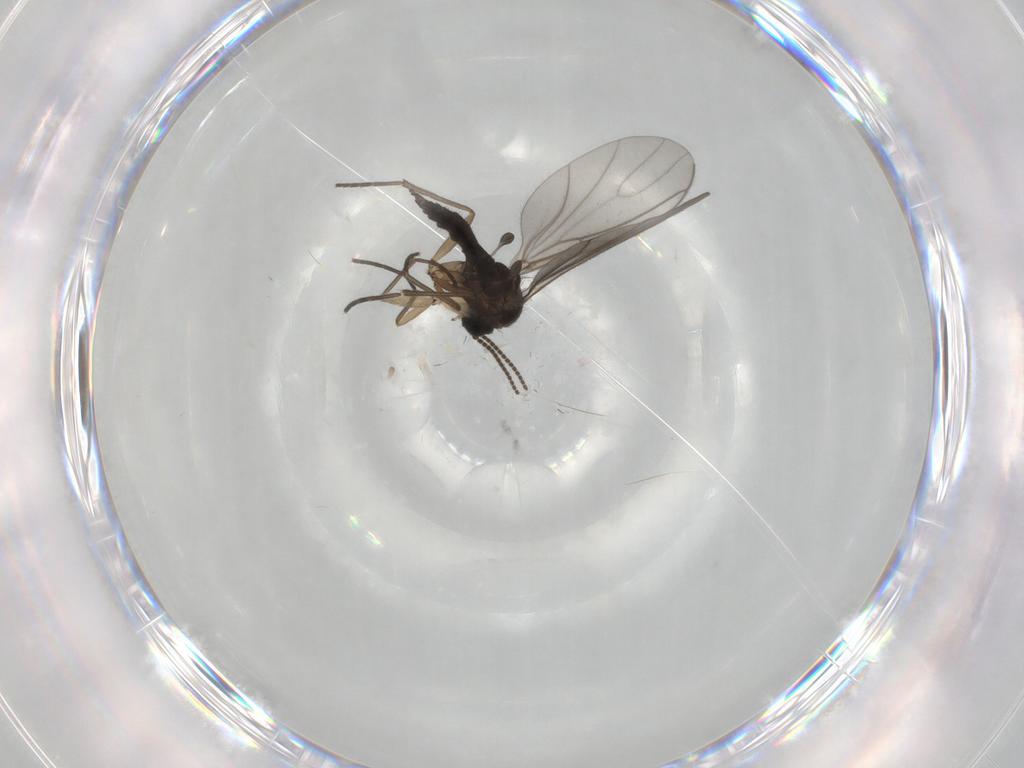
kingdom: Animalia
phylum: Arthropoda
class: Insecta
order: Diptera
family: Sciaridae
